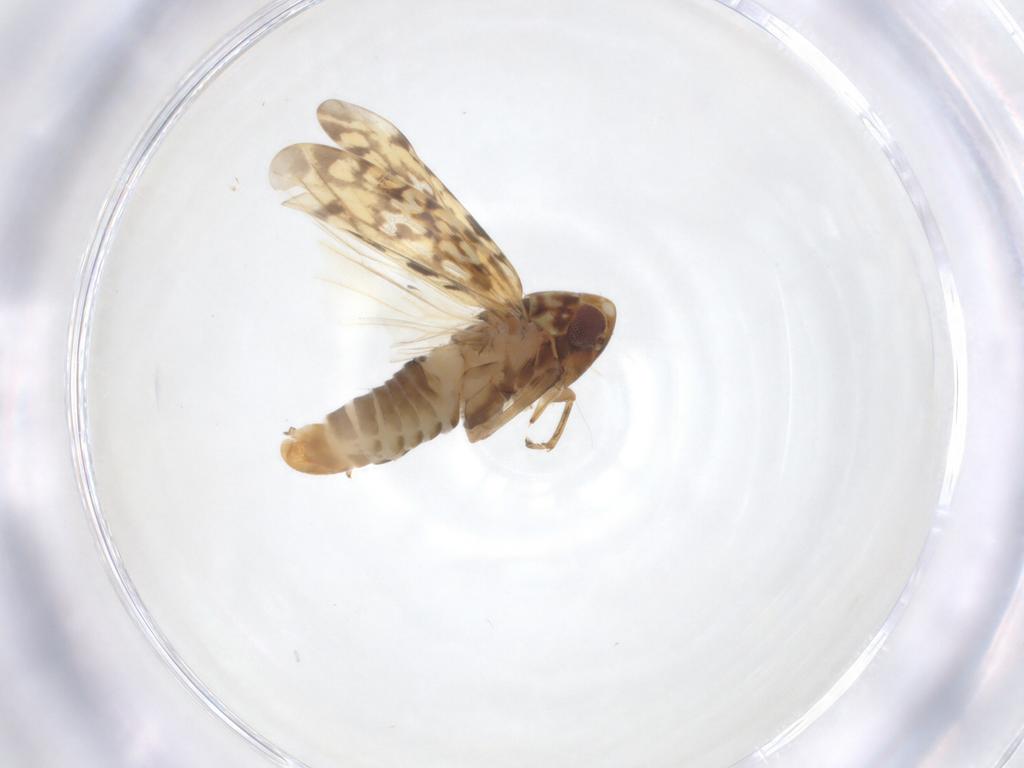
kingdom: Animalia
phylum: Arthropoda
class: Insecta
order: Hemiptera
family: Cicadellidae
